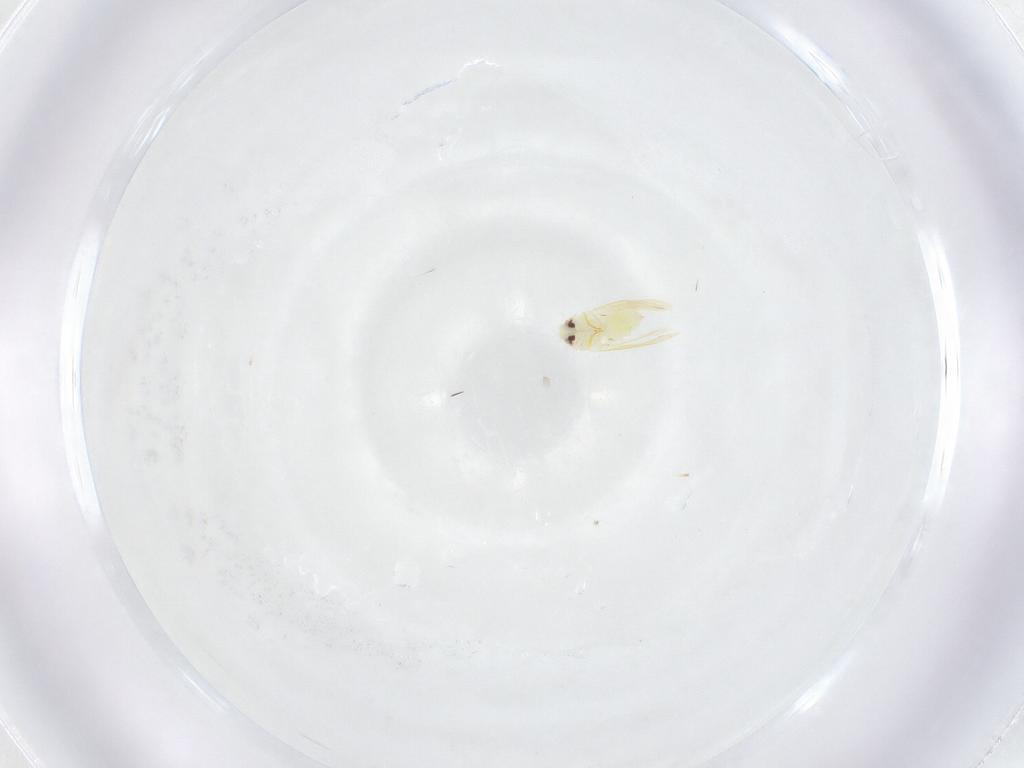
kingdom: Animalia
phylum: Arthropoda
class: Insecta
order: Hemiptera
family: Aleyrodidae
